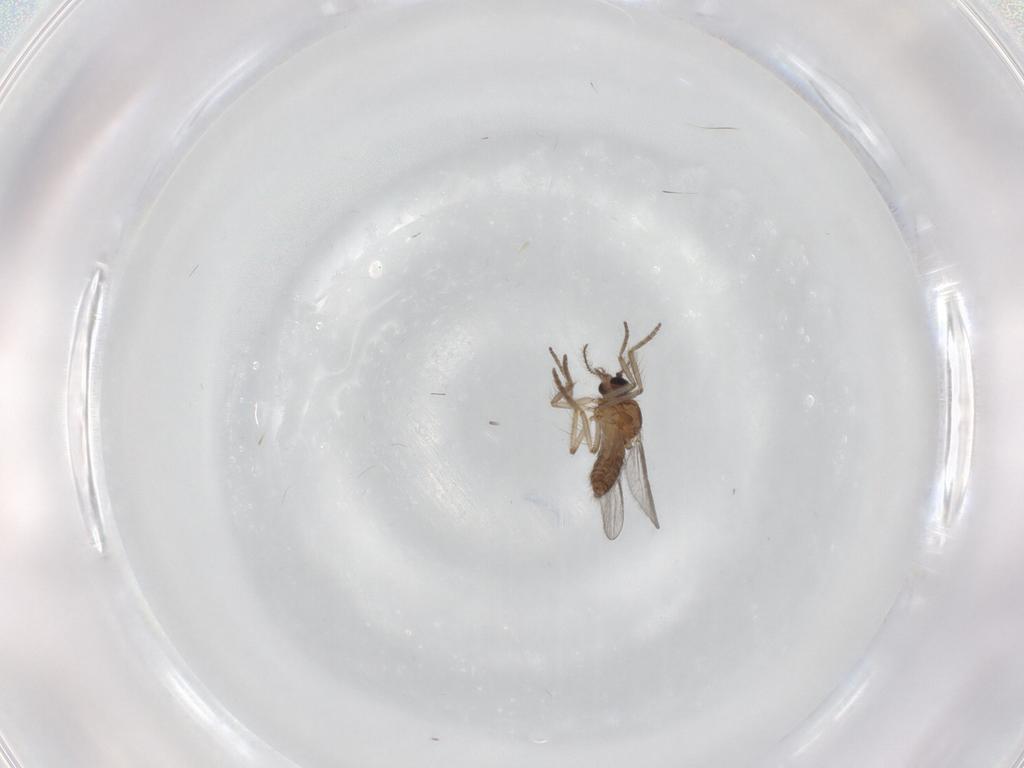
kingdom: Animalia
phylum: Arthropoda
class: Insecta
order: Diptera
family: Ceratopogonidae
